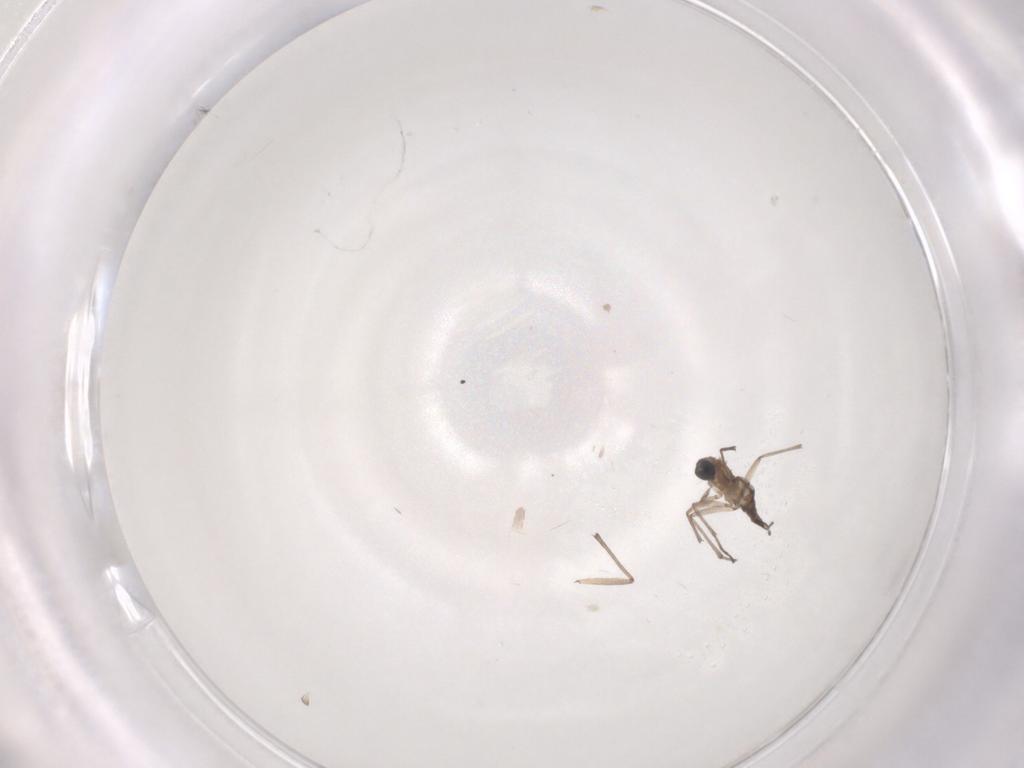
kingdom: Animalia
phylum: Arthropoda
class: Insecta
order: Diptera
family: Sciaridae
